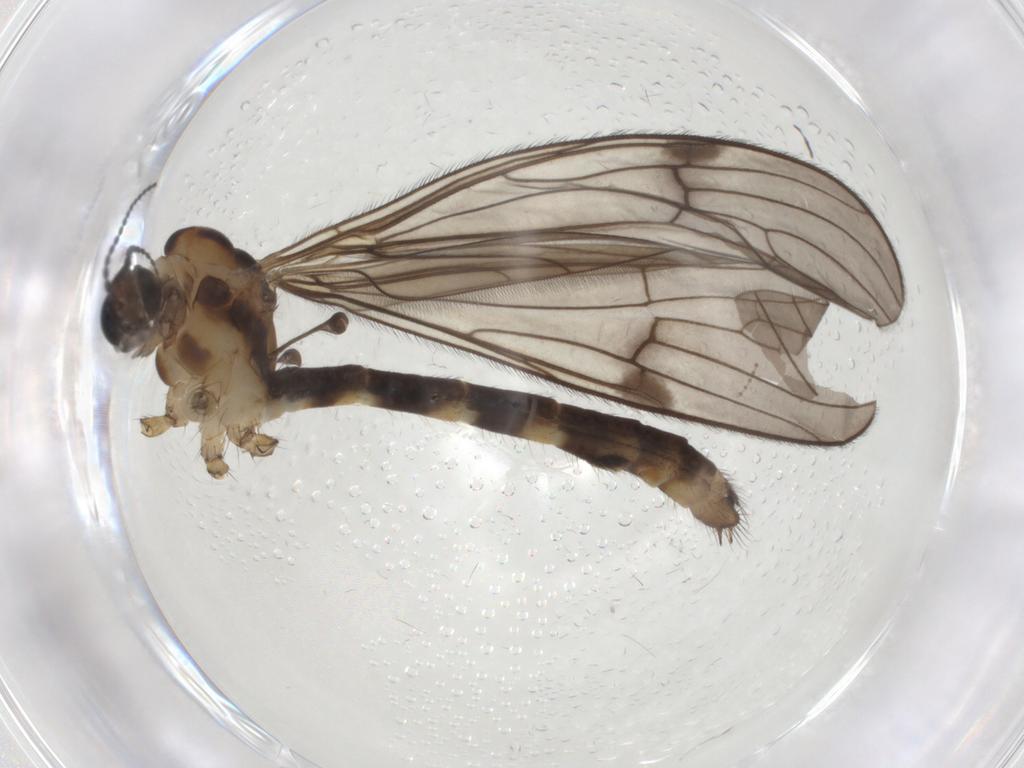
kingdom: Animalia
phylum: Arthropoda
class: Insecta
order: Diptera
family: Limoniidae
